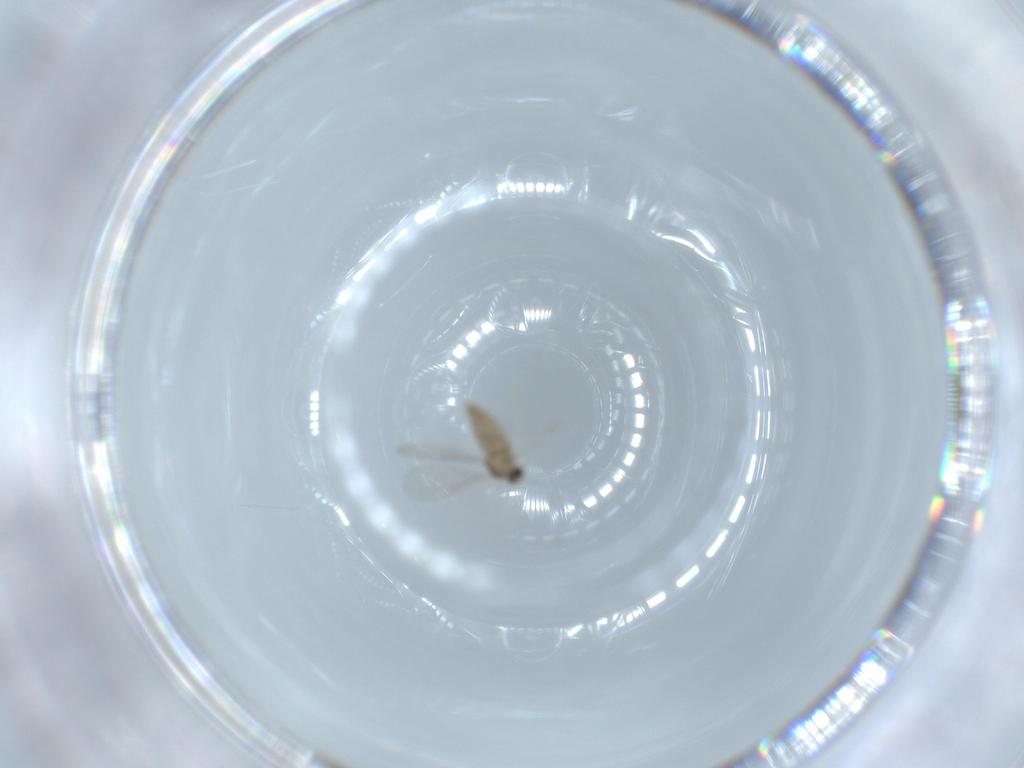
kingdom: Animalia
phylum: Arthropoda
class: Insecta
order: Diptera
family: Cecidomyiidae
